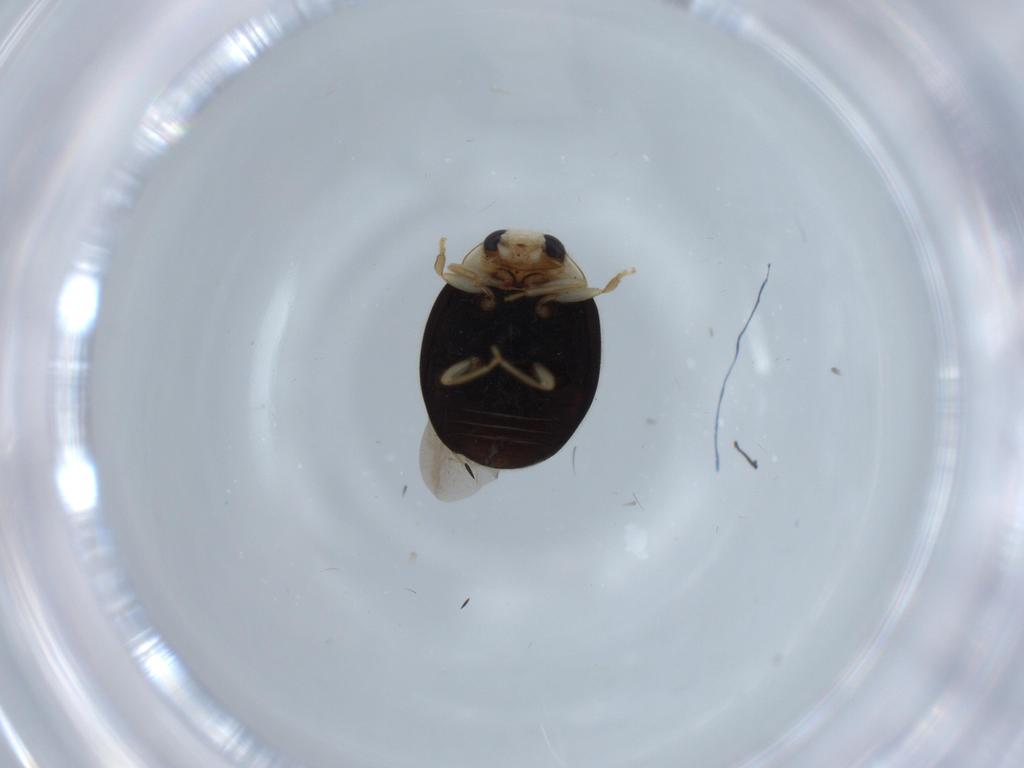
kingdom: Animalia
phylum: Arthropoda
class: Insecta
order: Coleoptera
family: Coccinellidae
